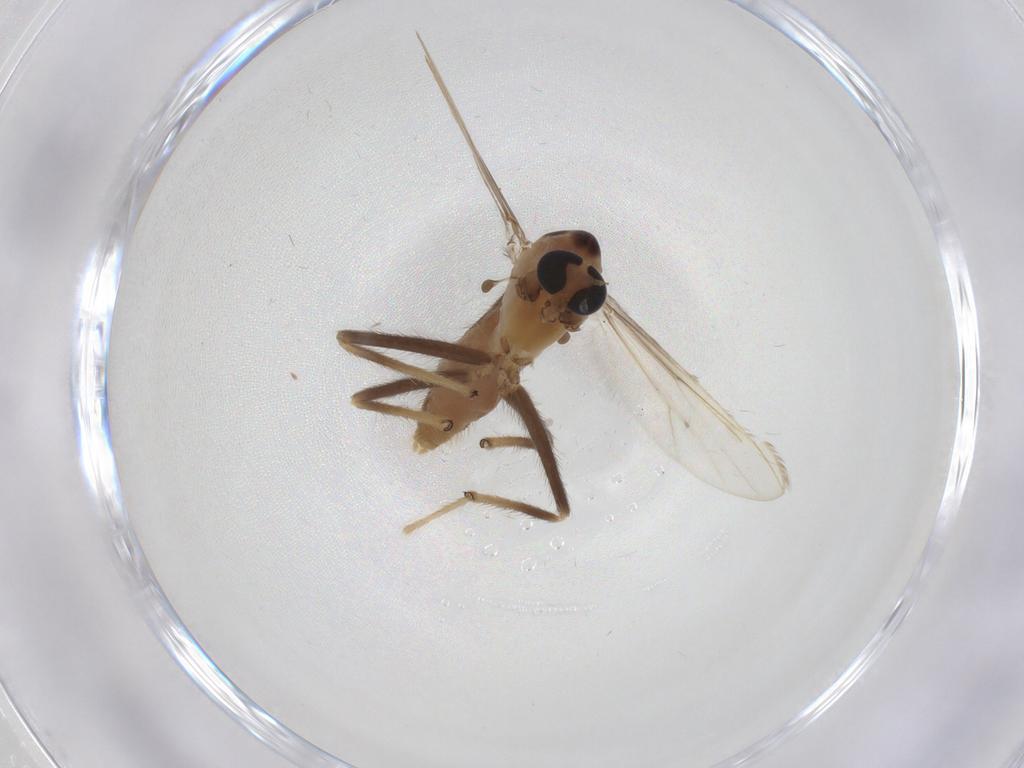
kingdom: Animalia
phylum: Arthropoda
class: Insecta
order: Diptera
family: Chironomidae
